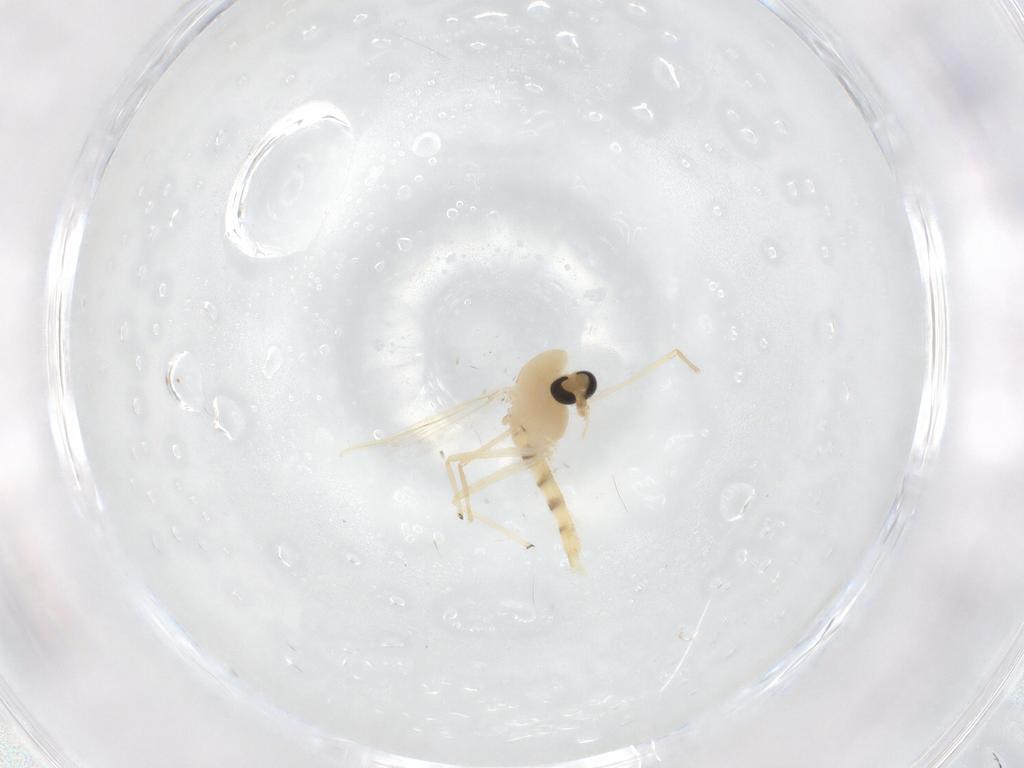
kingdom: Animalia
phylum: Arthropoda
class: Insecta
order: Diptera
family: Chironomidae
